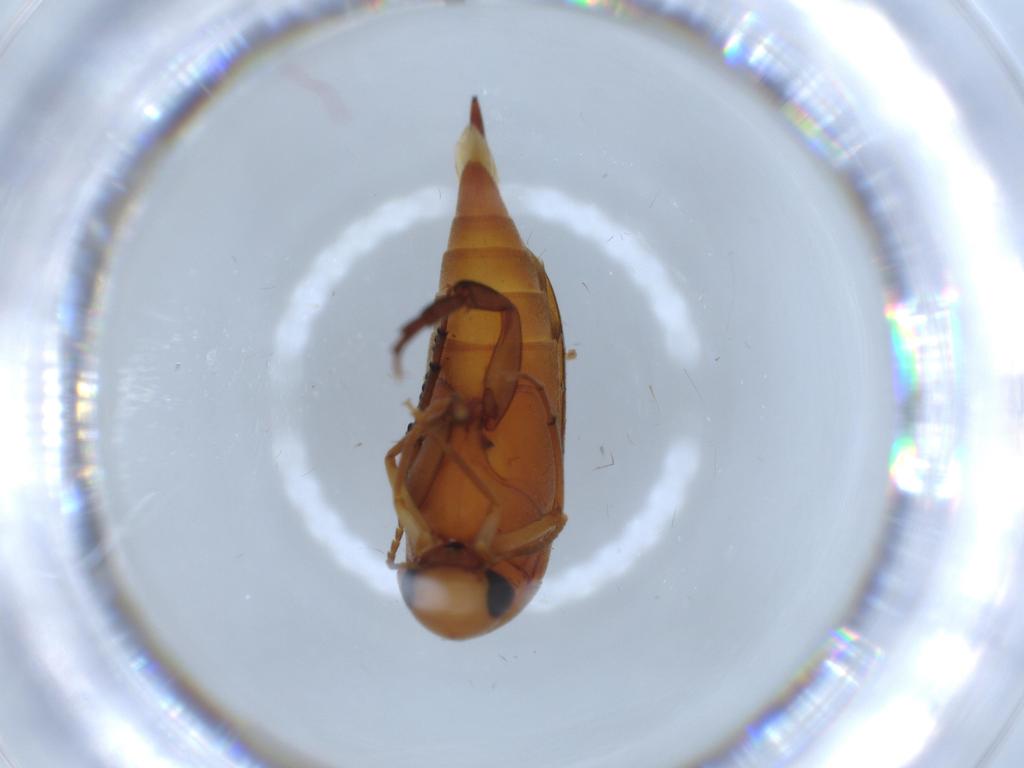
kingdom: Animalia
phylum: Arthropoda
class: Insecta
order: Coleoptera
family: Mordellidae
